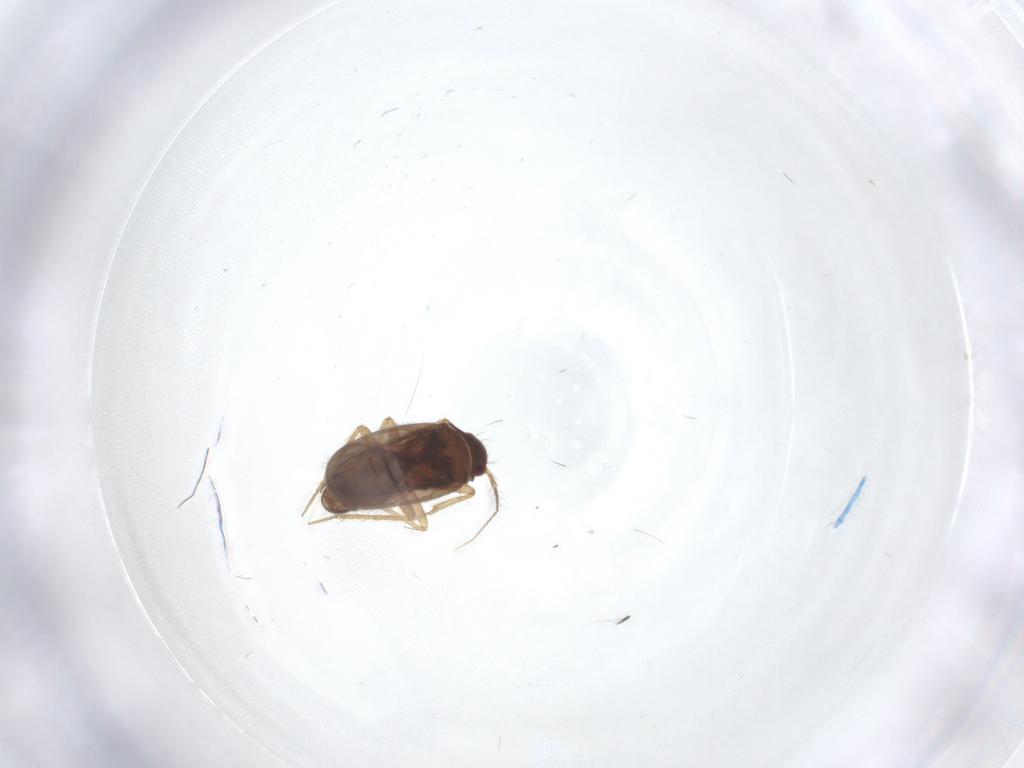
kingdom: Animalia
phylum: Arthropoda
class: Insecta
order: Hemiptera
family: Ceratocombidae
